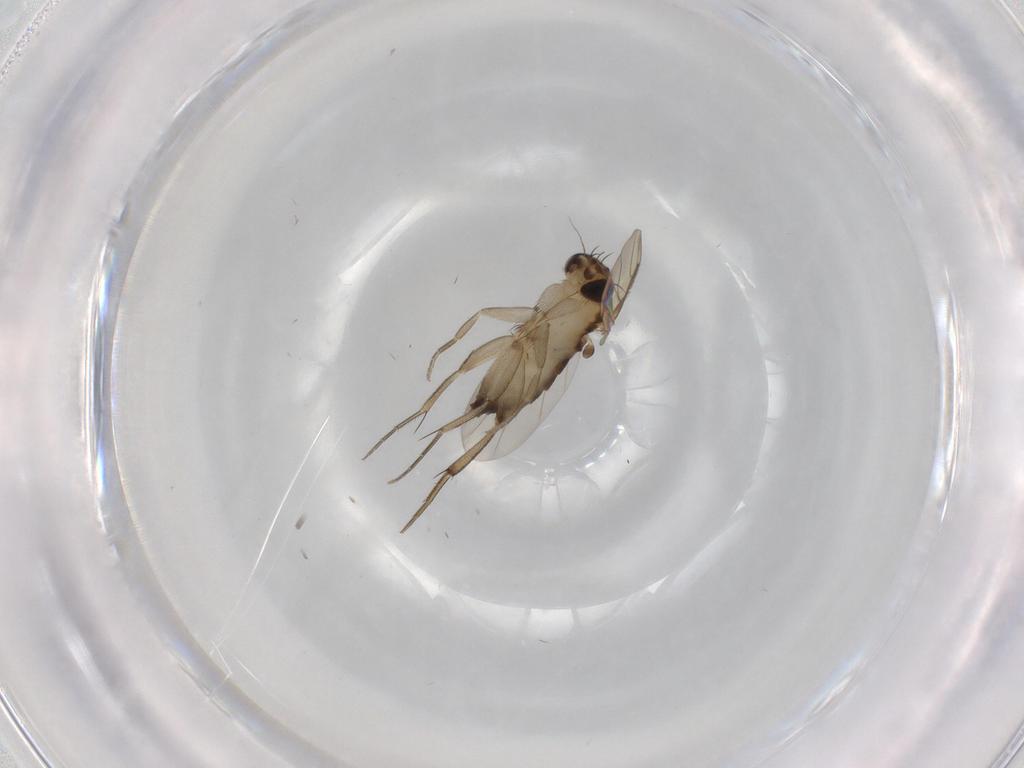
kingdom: Animalia
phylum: Arthropoda
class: Insecta
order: Diptera
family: Phoridae
